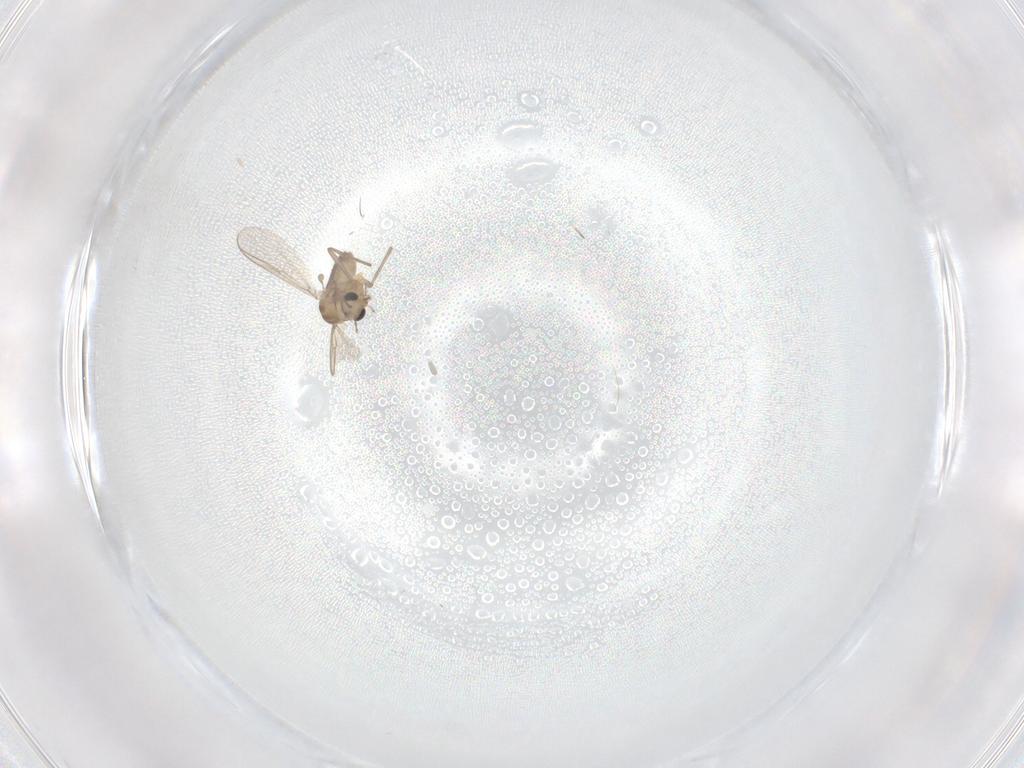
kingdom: Animalia
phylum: Arthropoda
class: Insecta
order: Diptera
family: Chironomidae
